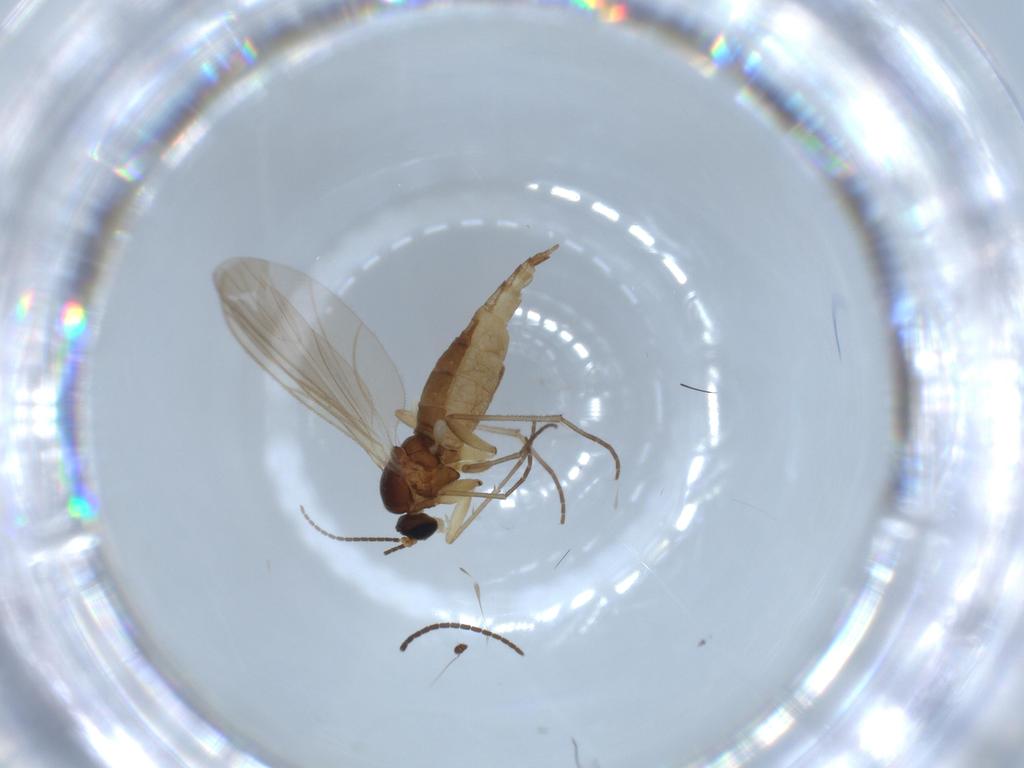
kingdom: Animalia
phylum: Arthropoda
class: Insecta
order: Diptera
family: Sciaridae
